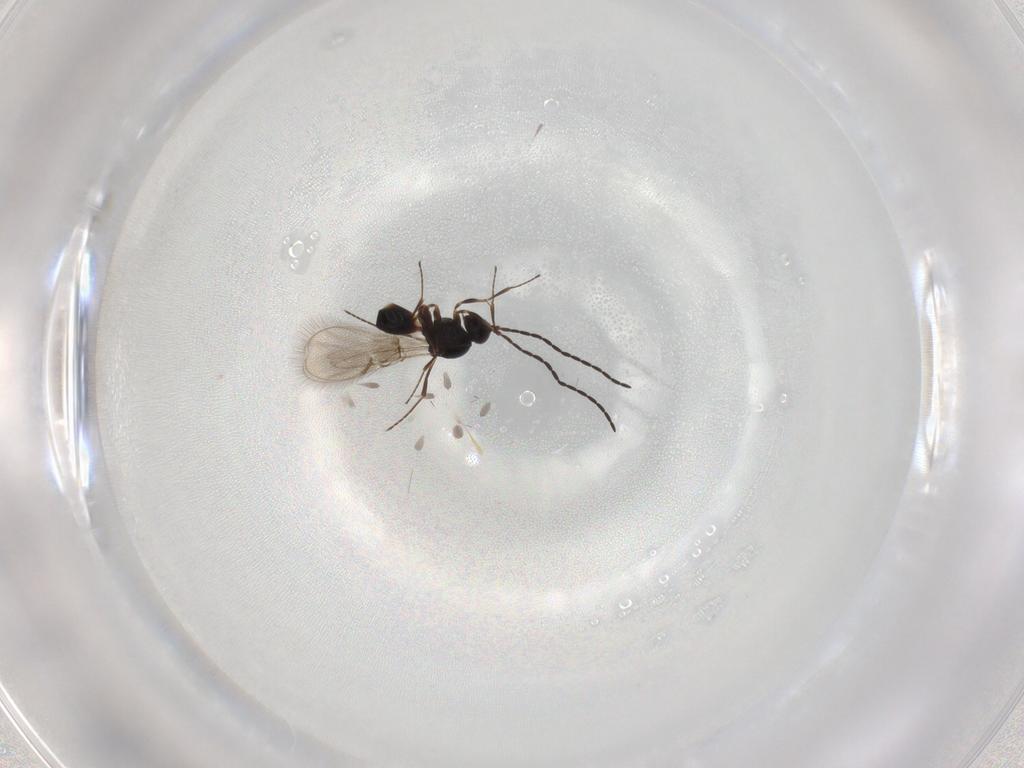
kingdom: Animalia
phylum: Arthropoda
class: Insecta
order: Hymenoptera
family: Figitidae
